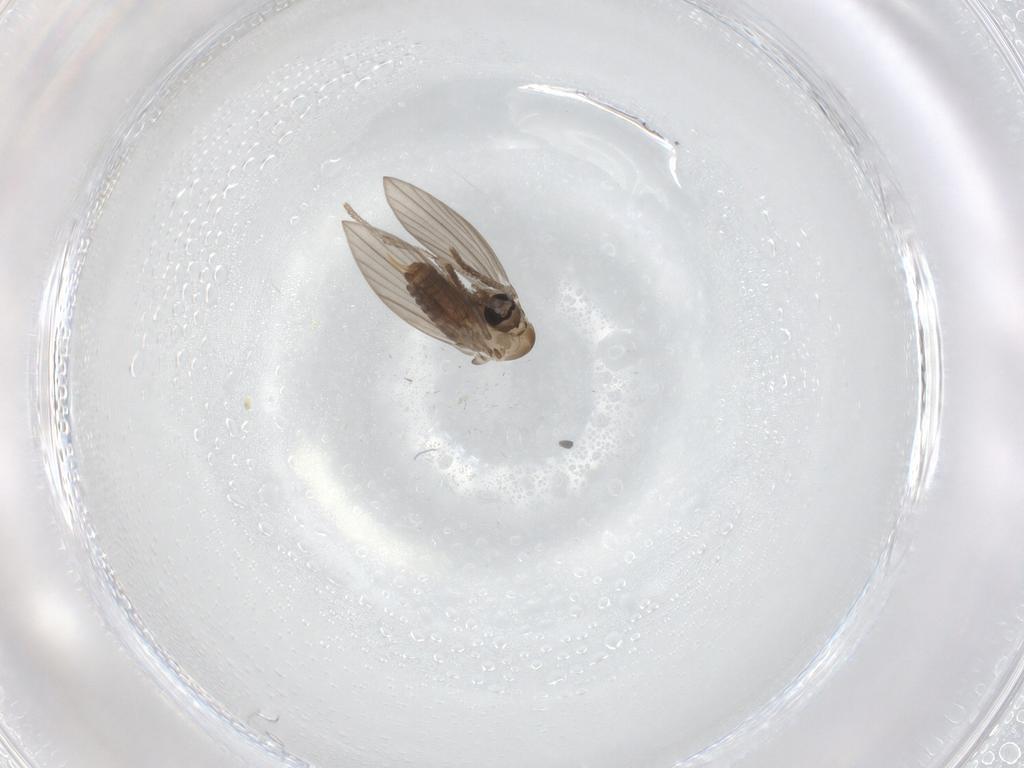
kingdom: Animalia
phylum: Arthropoda
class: Insecta
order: Diptera
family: Psychodidae
